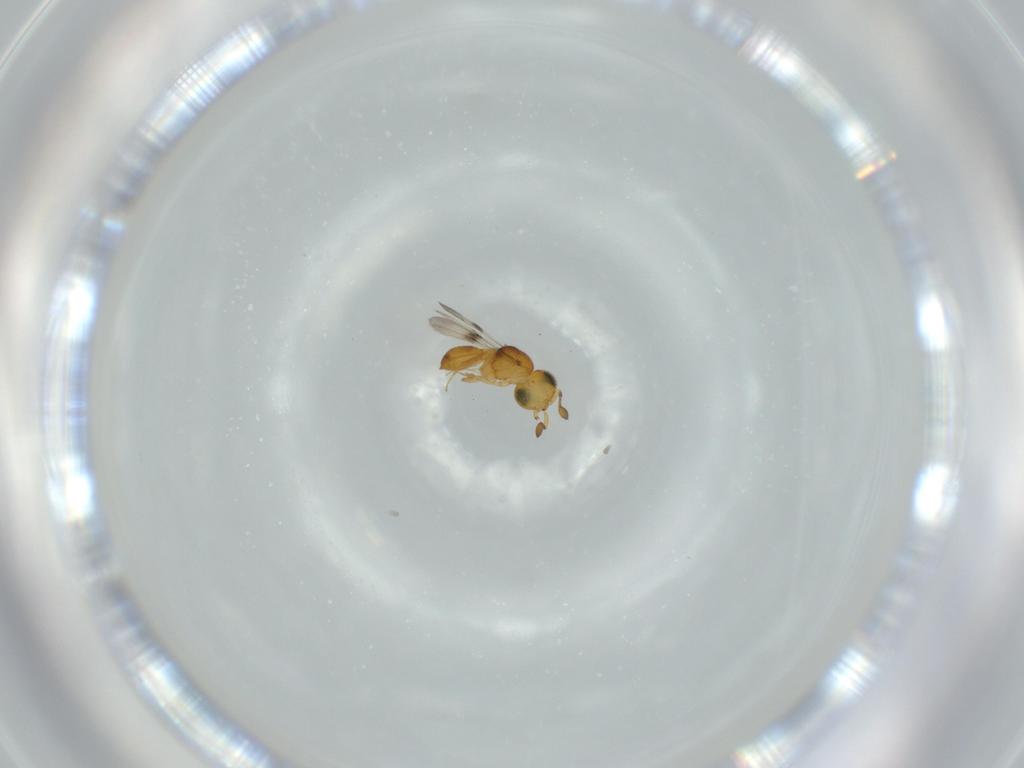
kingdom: Animalia
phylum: Arthropoda
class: Insecta
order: Hymenoptera
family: Scelionidae
